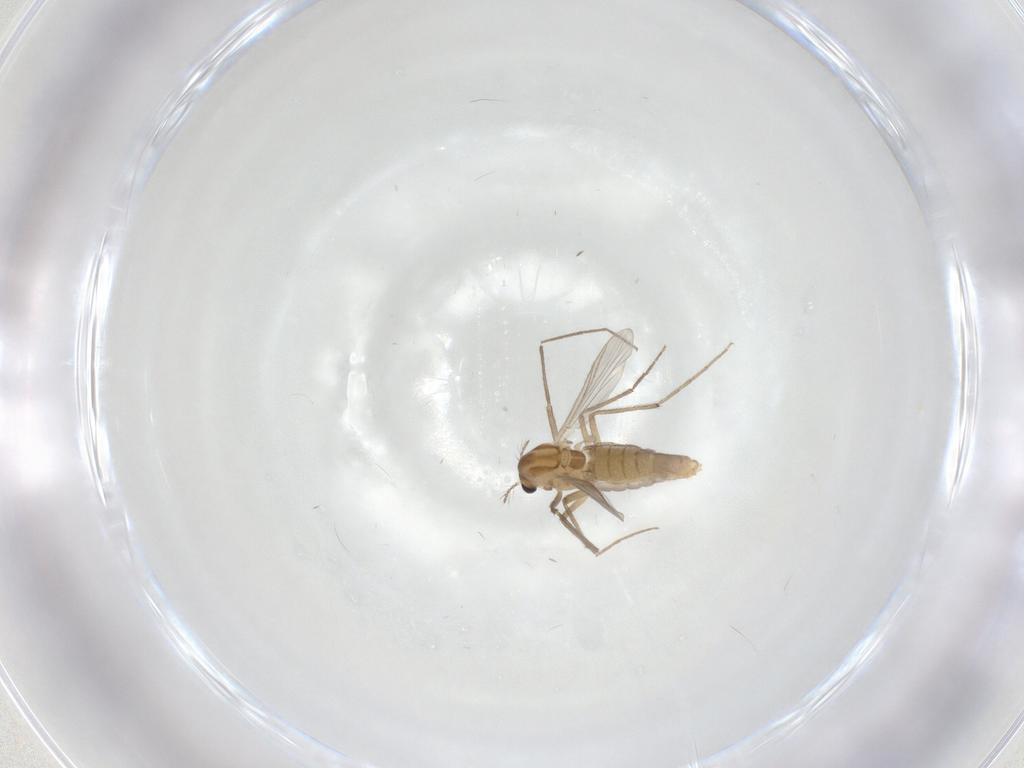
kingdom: Animalia
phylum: Arthropoda
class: Insecta
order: Diptera
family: Chironomidae
